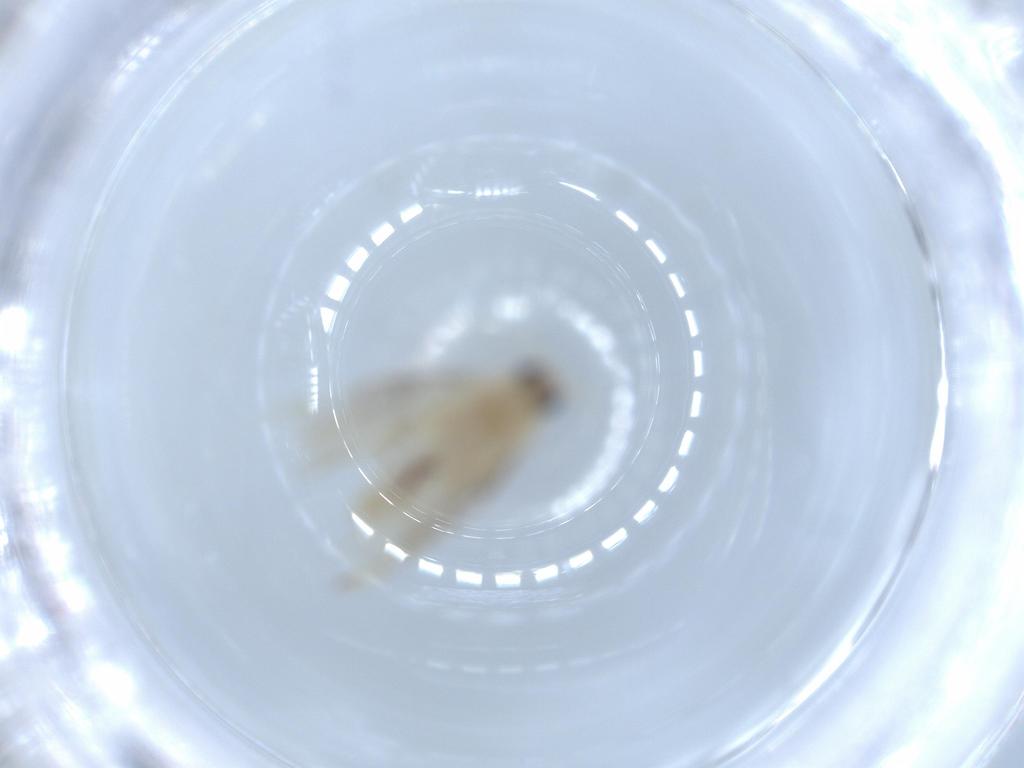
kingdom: Animalia
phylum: Arthropoda
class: Insecta
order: Lepidoptera
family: Bucculatricidae
